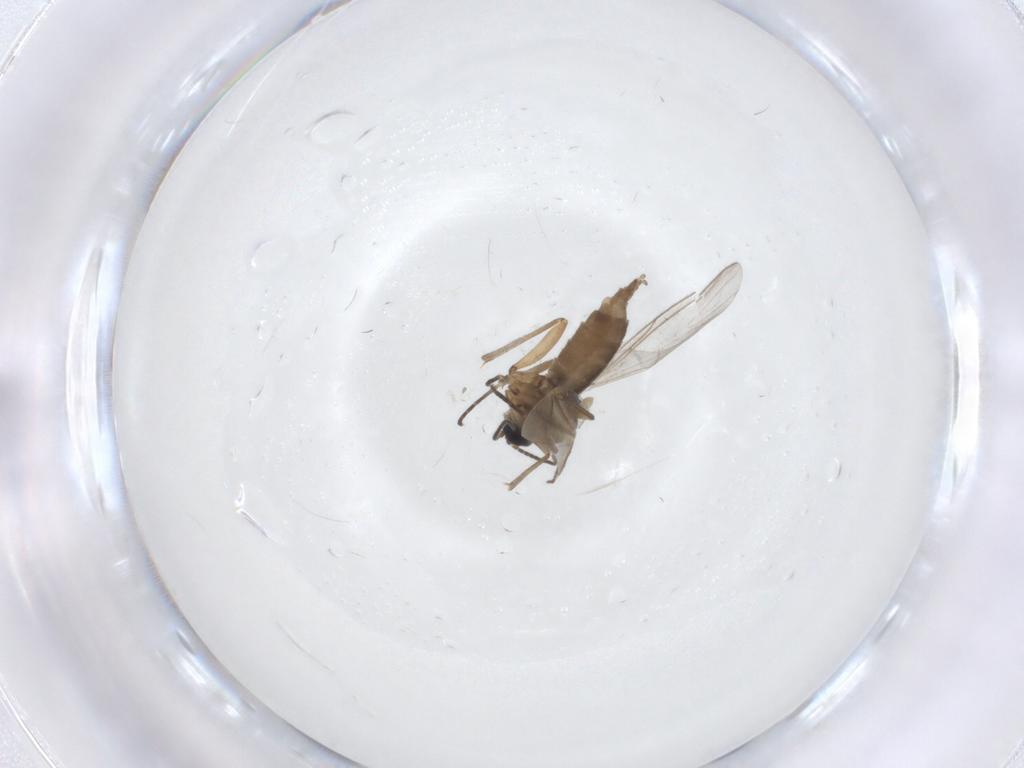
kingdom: Animalia
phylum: Arthropoda
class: Insecta
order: Diptera
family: Sciaridae
